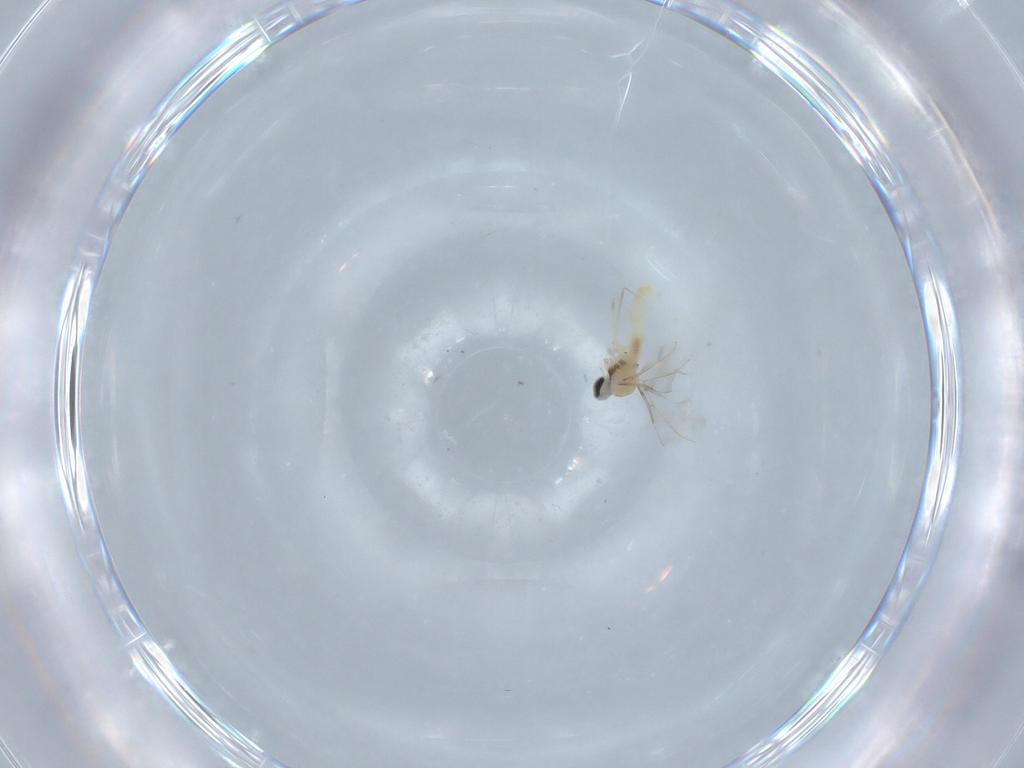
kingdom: Animalia
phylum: Arthropoda
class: Insecta
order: Diptera
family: Cecidomyiidae
